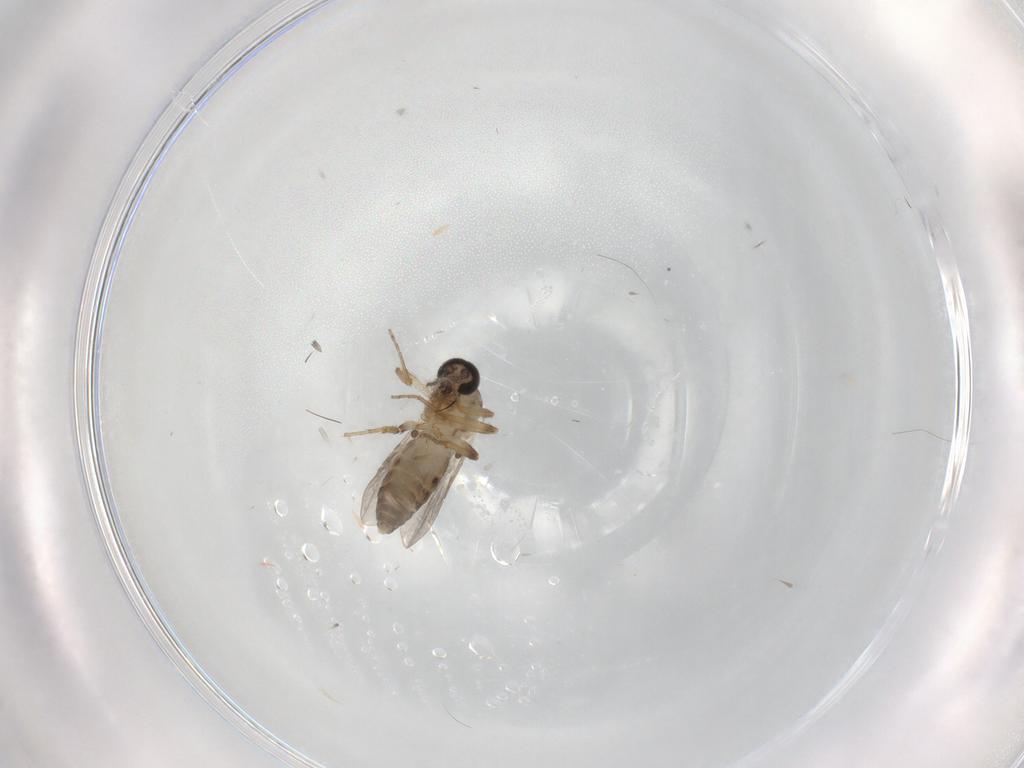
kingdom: Animalia
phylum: Arthropoda
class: Insecta
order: Diptera
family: Ceratopogonidae
